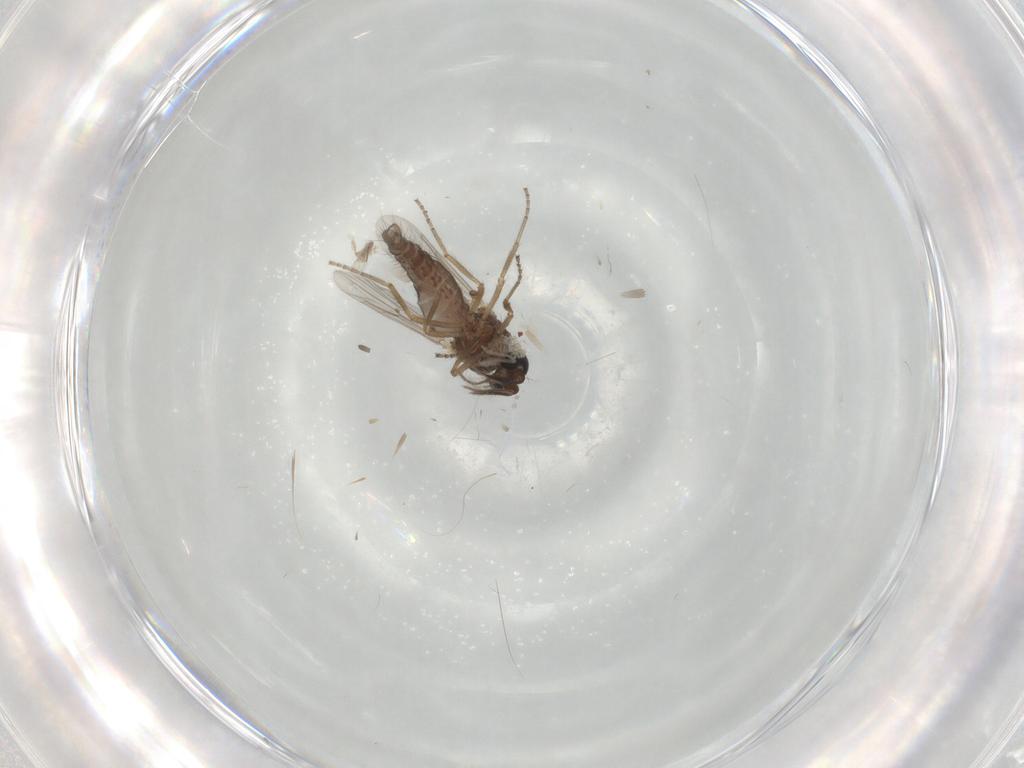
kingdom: Animalia
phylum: Arthropoda
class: Insecta
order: Diptera
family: Ceratopogonidae
